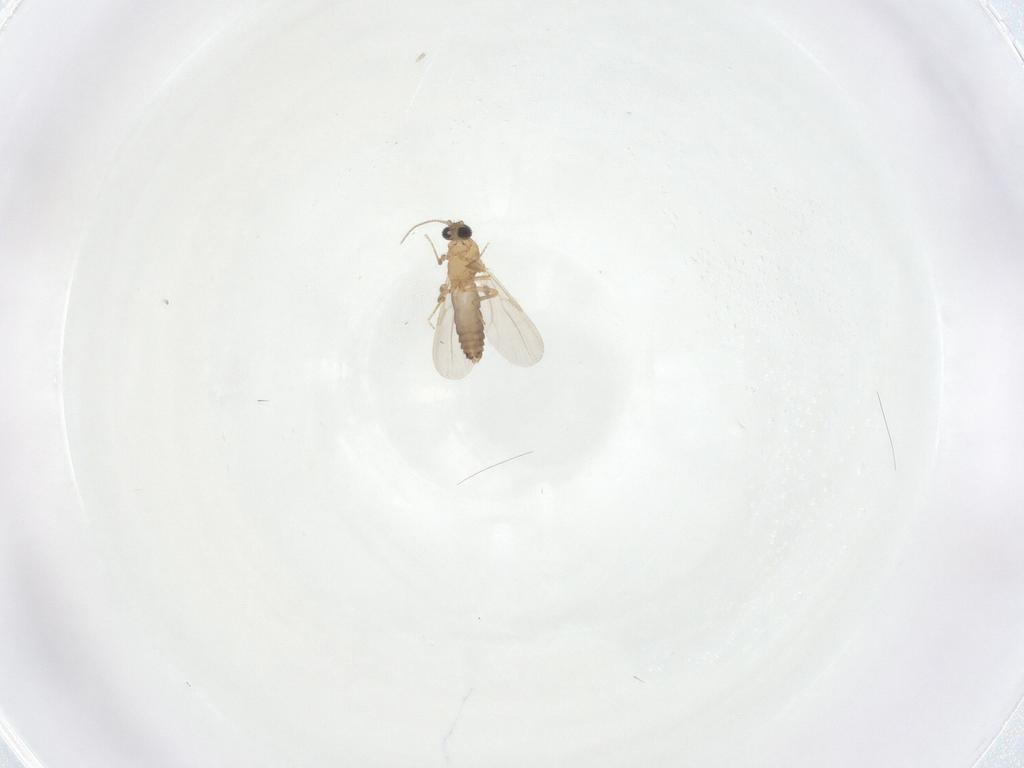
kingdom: Animalia
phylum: Arthropoda
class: Insecta
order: Diptera
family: Ceratopogonidae
